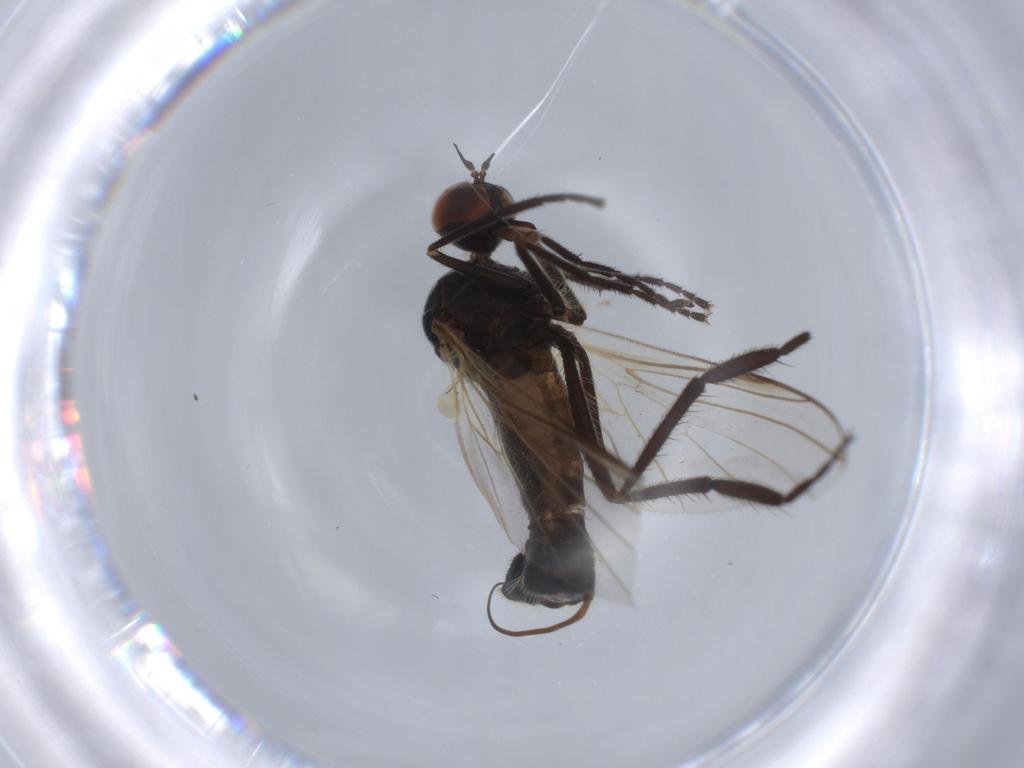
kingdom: Animalia
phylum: Arthropoda
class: Insecta
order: Diptera
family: Empididae
